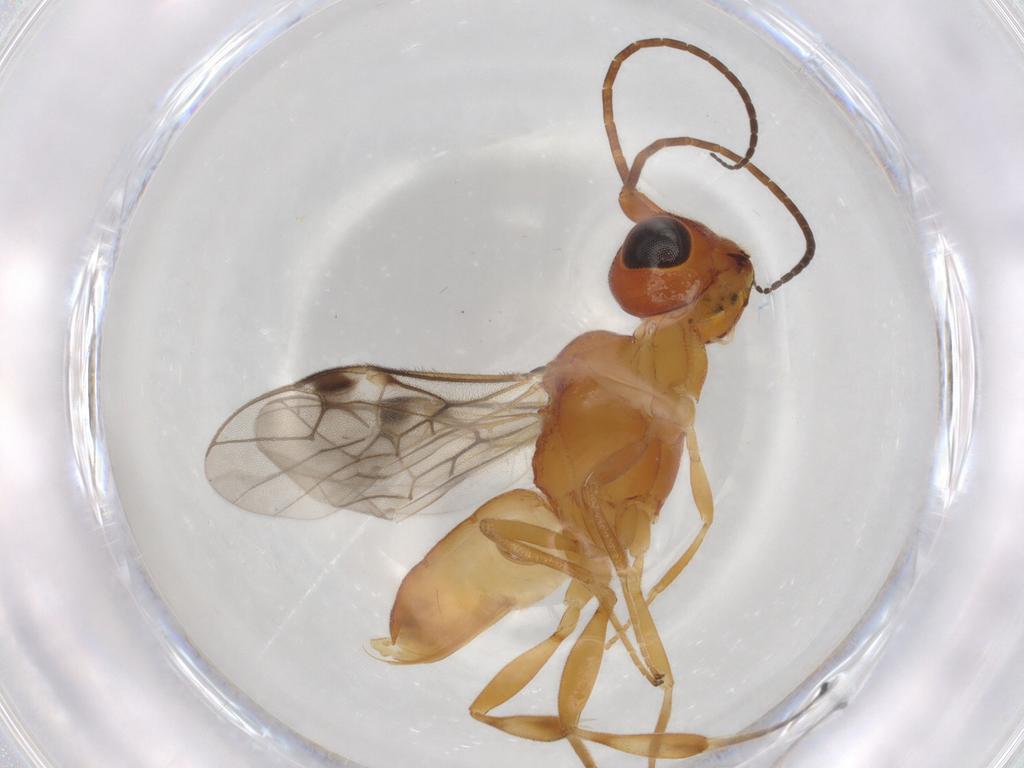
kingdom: Animalia
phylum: Arthropoda
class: Insecta
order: Hymenoptera
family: Braconidae
